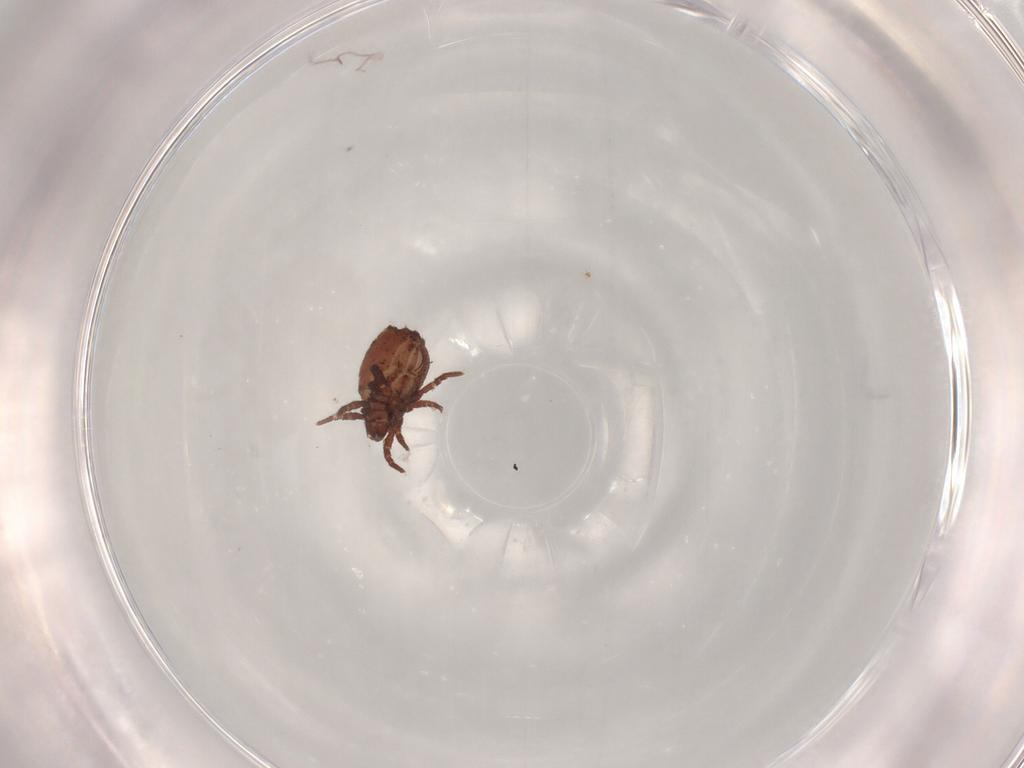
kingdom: Animalia
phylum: Arthropoda
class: Arachnida
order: Sarcoptiformes
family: Crotoniidae
